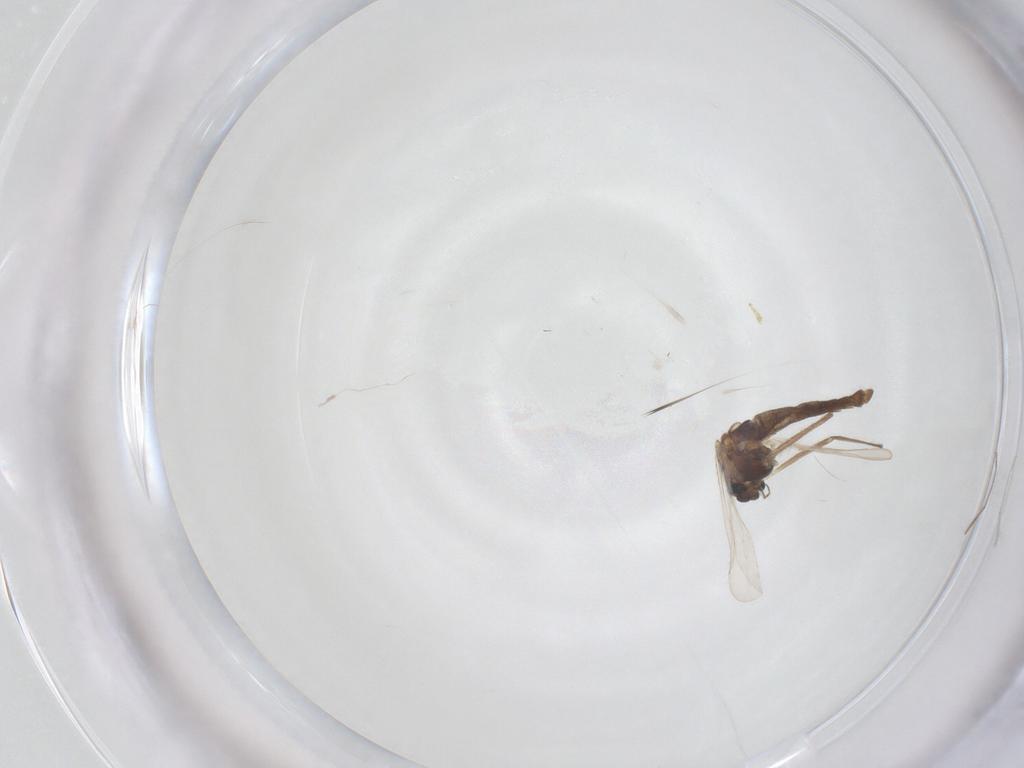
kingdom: Animalia
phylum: Arthropoda
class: Insecta
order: Diptera
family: Chironomidae
